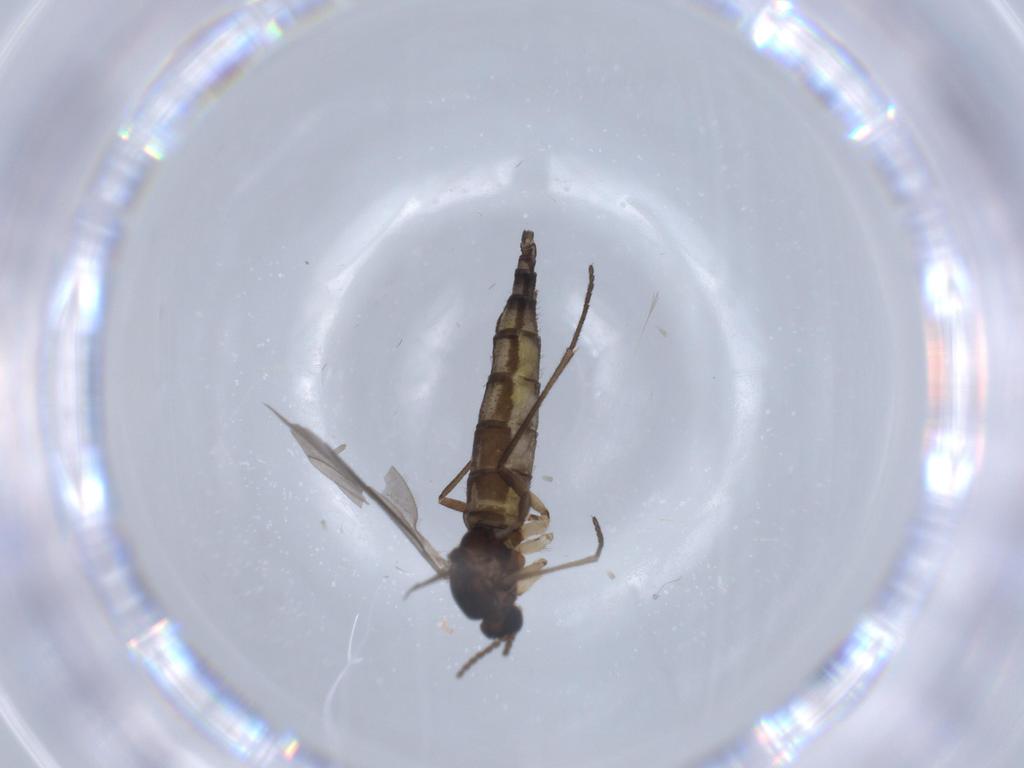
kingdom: Animalia
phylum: Arthropoda
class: Insecta
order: Diptera
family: Sciaridae
